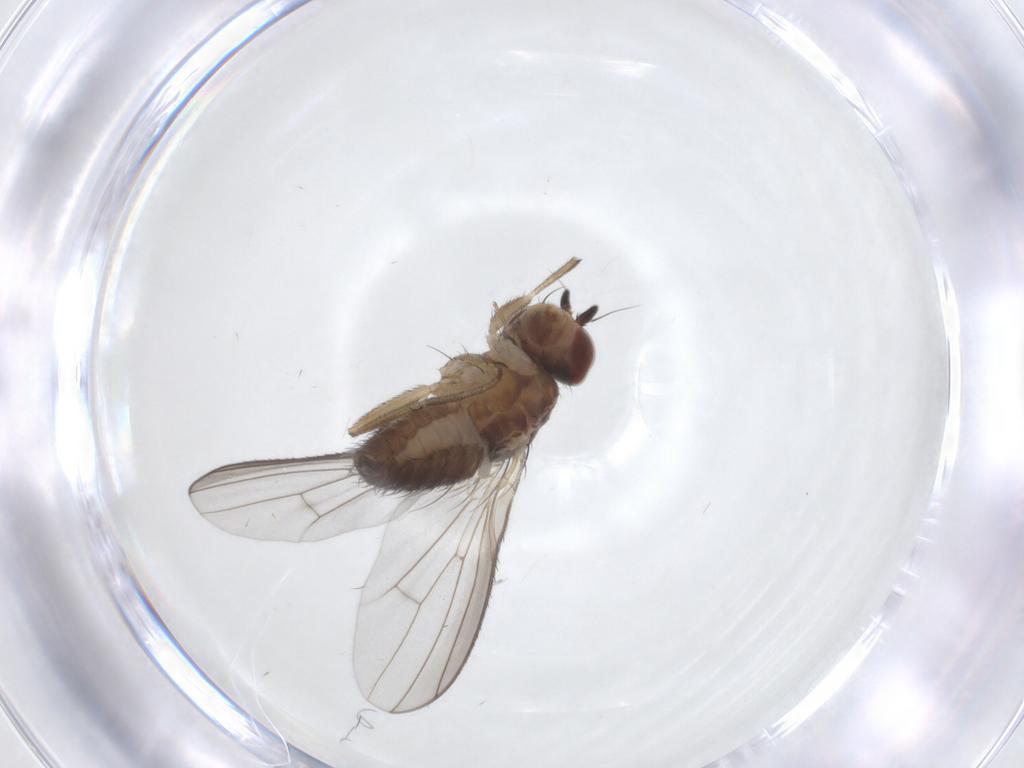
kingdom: Animalia
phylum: Arthropoda
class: Insecta
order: Diptera
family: Heleomyzidae
